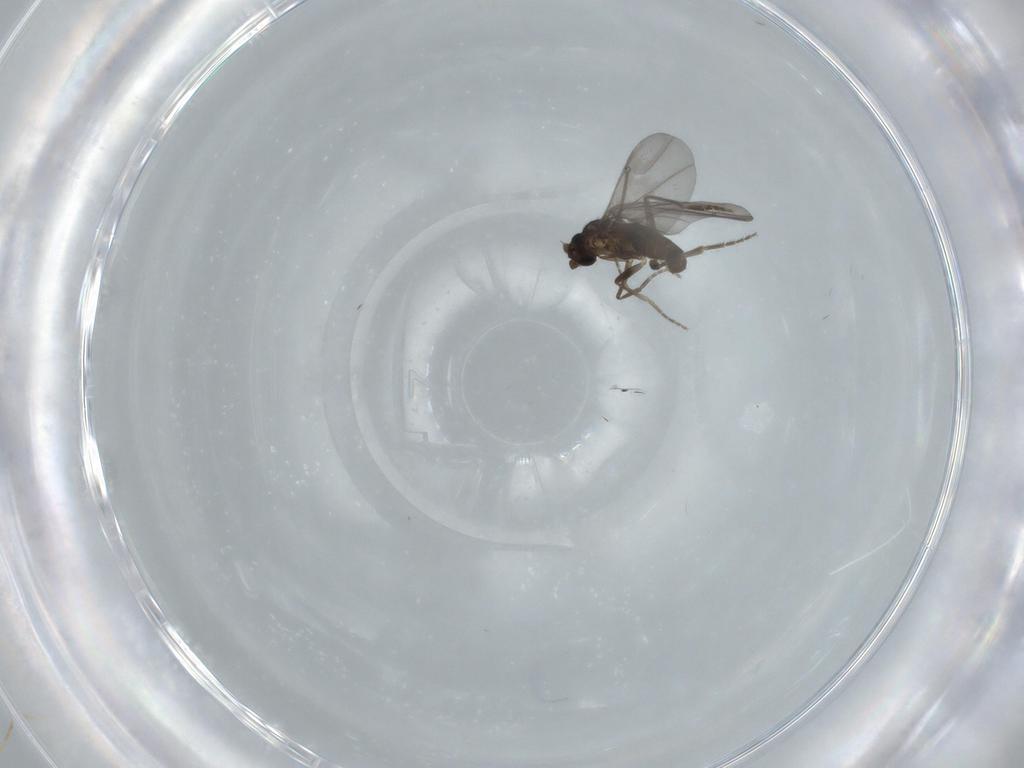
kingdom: Animalia
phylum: Arthropoda
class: Insecta
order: Diptera
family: Phoridae
